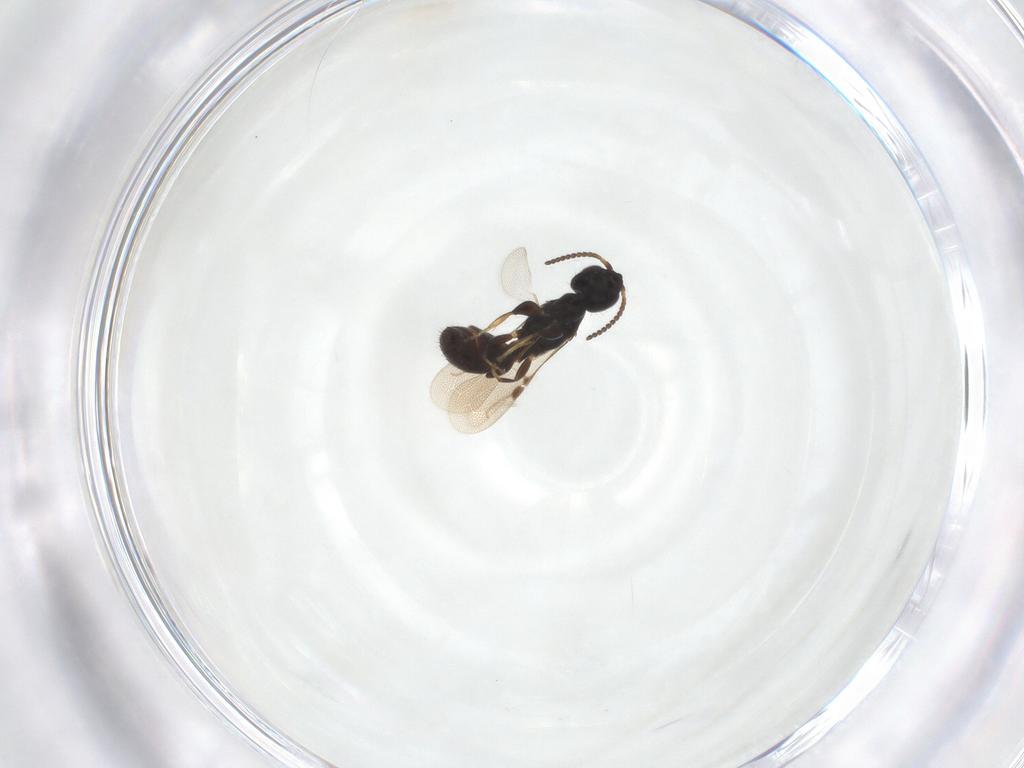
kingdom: Animalia
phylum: Arthropoda
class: Insecta
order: Hymenoptera
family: Bethylidae
